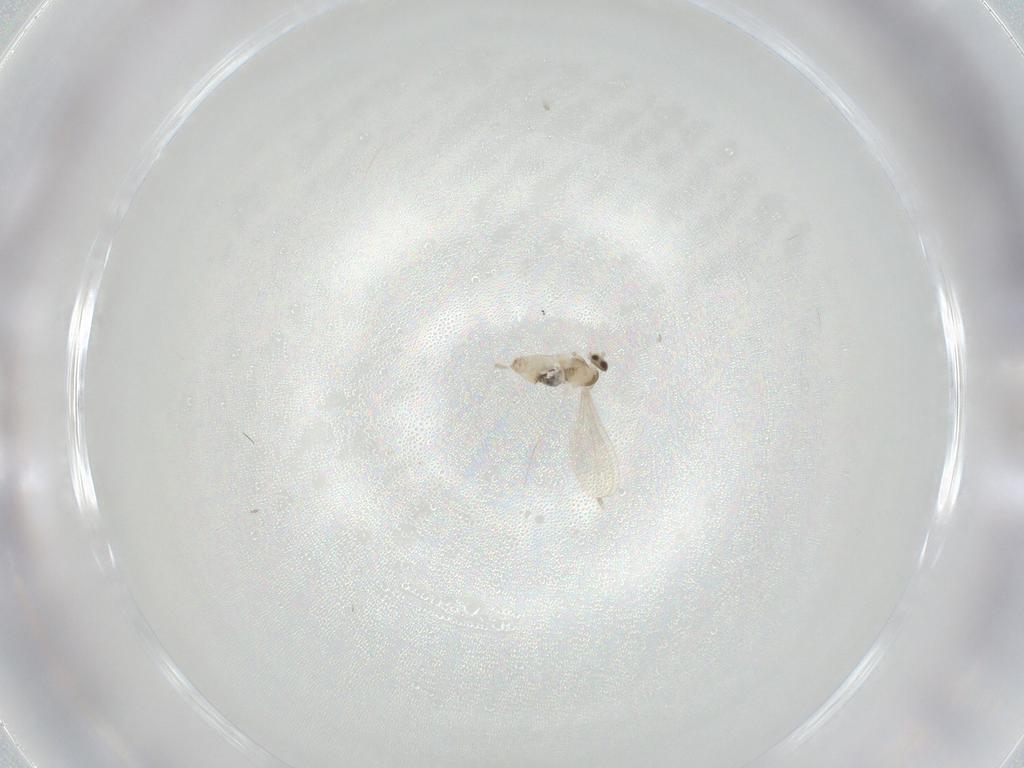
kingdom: Animalia
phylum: Arthropoda
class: Insecta
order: Diptera
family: Cecidomyiidae
